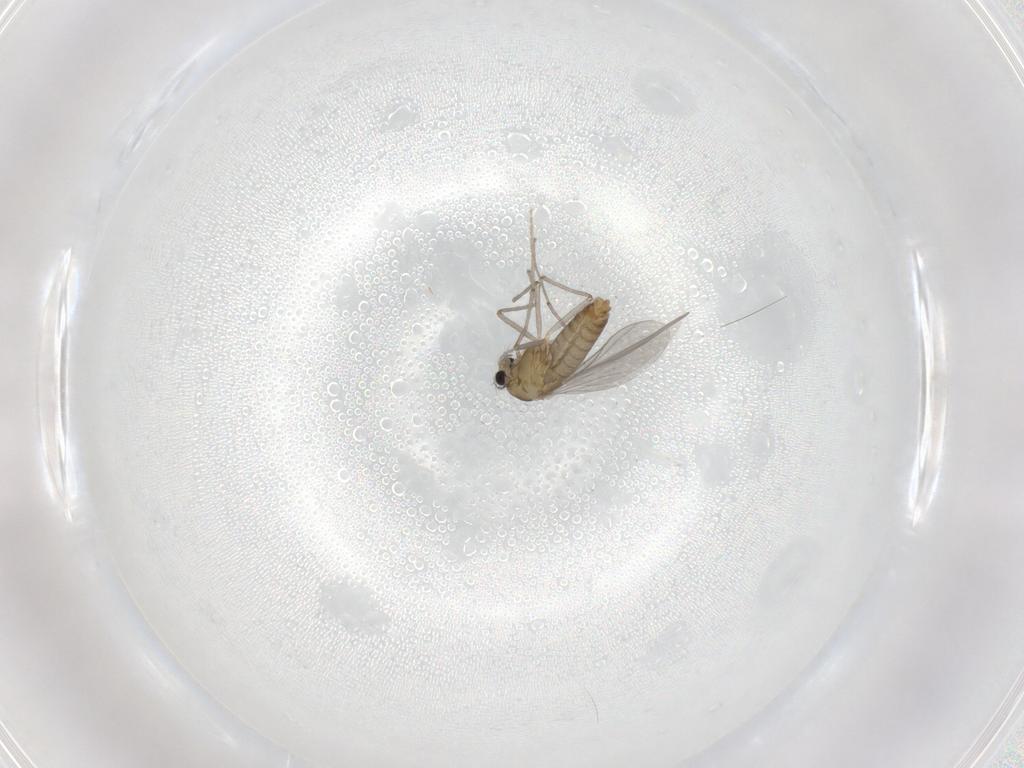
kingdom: Animalia
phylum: Arthropoda
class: Insecta
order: Diptera
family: Chironomidae
